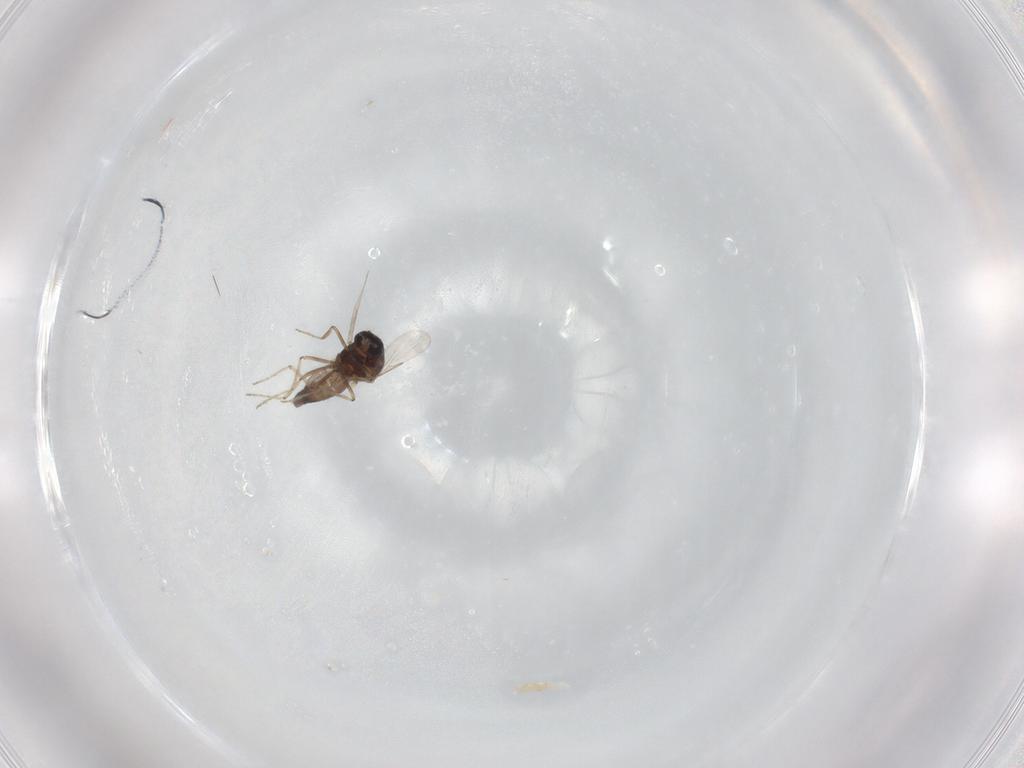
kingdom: Animalia
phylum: Arthropoda
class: Insecta
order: Diptera
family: Ceratopogonidae
